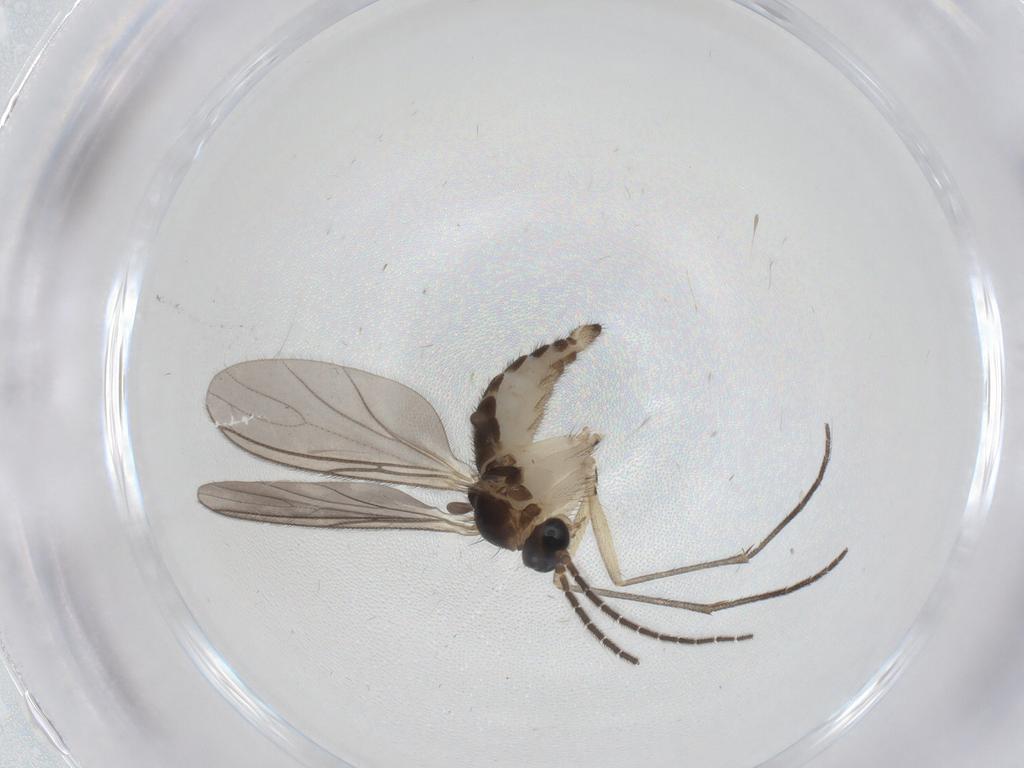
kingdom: Animalia
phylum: Arthropoda
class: Insecta
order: Diptera
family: Sciaridae
